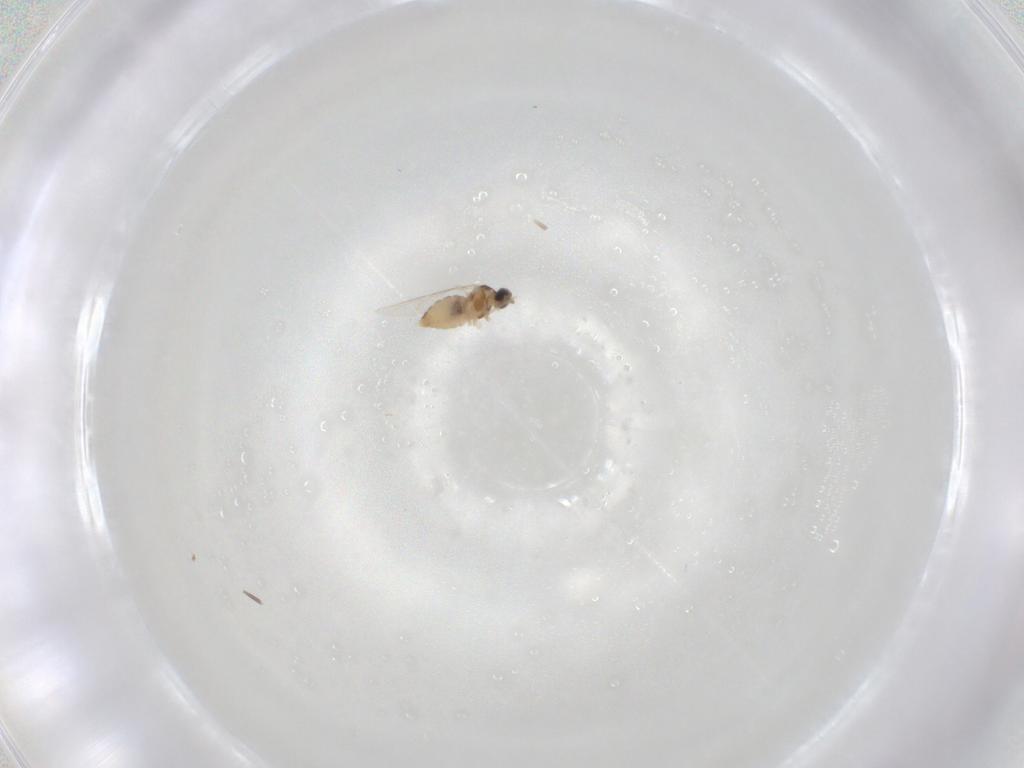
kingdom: Animalia
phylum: Arthropoda
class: Insecta
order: Diptera
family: Cecidomyiidae
